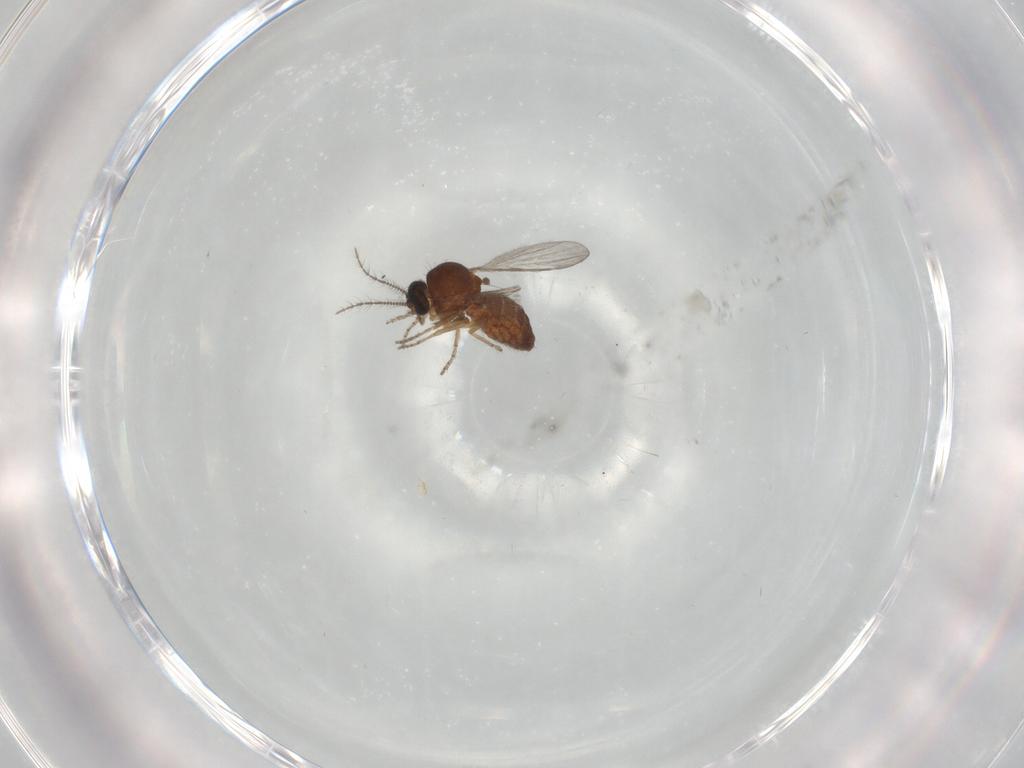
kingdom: Animalia
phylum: Arthropoda
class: Insecta
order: Diptera
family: Ceratopogonidae
